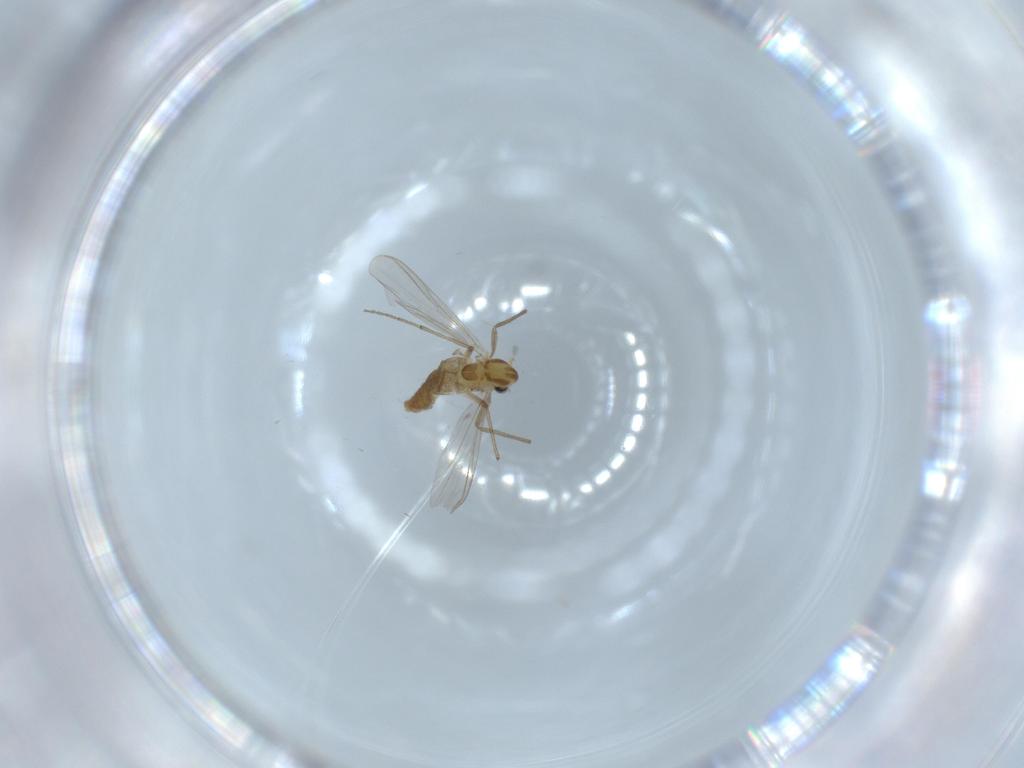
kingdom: Animalia
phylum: Arthropoda
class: Insecta
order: Diptera
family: Chironomidae
